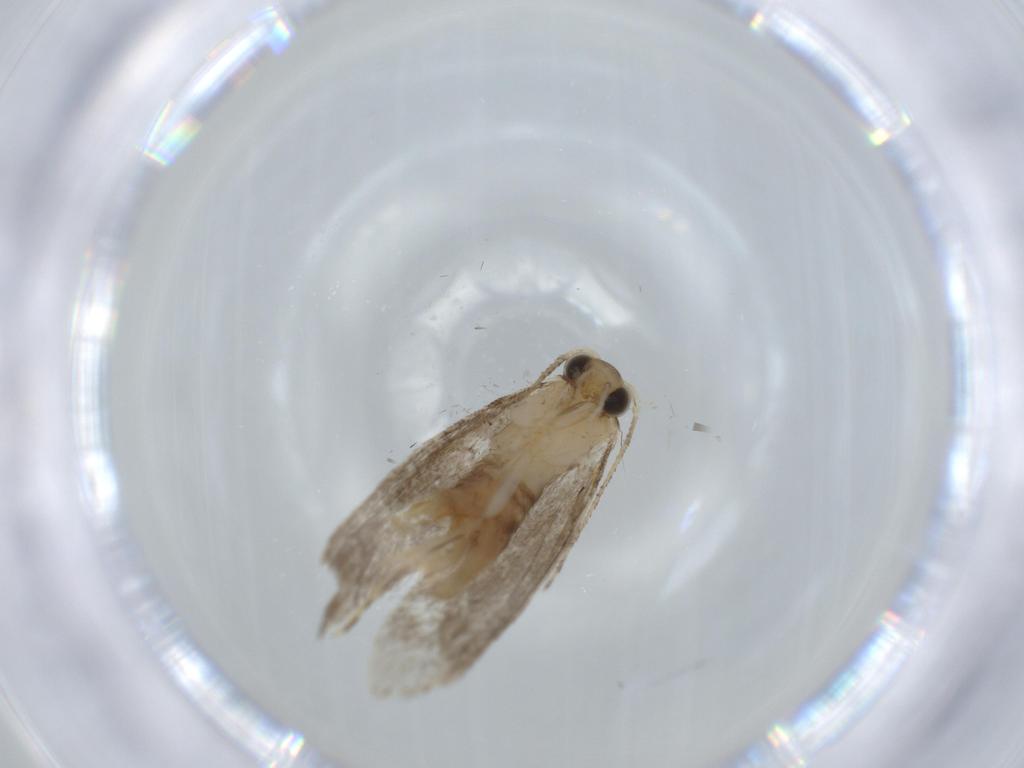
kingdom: Animalia
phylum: Arthropoda
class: Insecta
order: Lepidoptera
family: Tineidae
